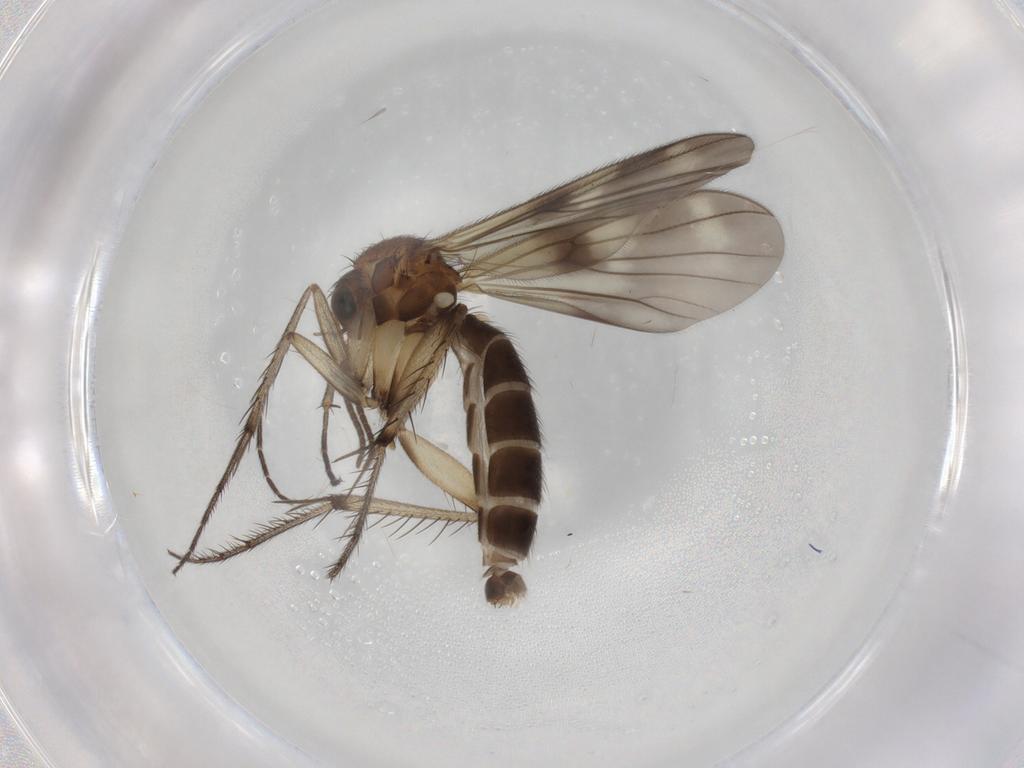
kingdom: Animalia
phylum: Arthropoda
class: Insecta
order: Diptera
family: Mycetophilidae
